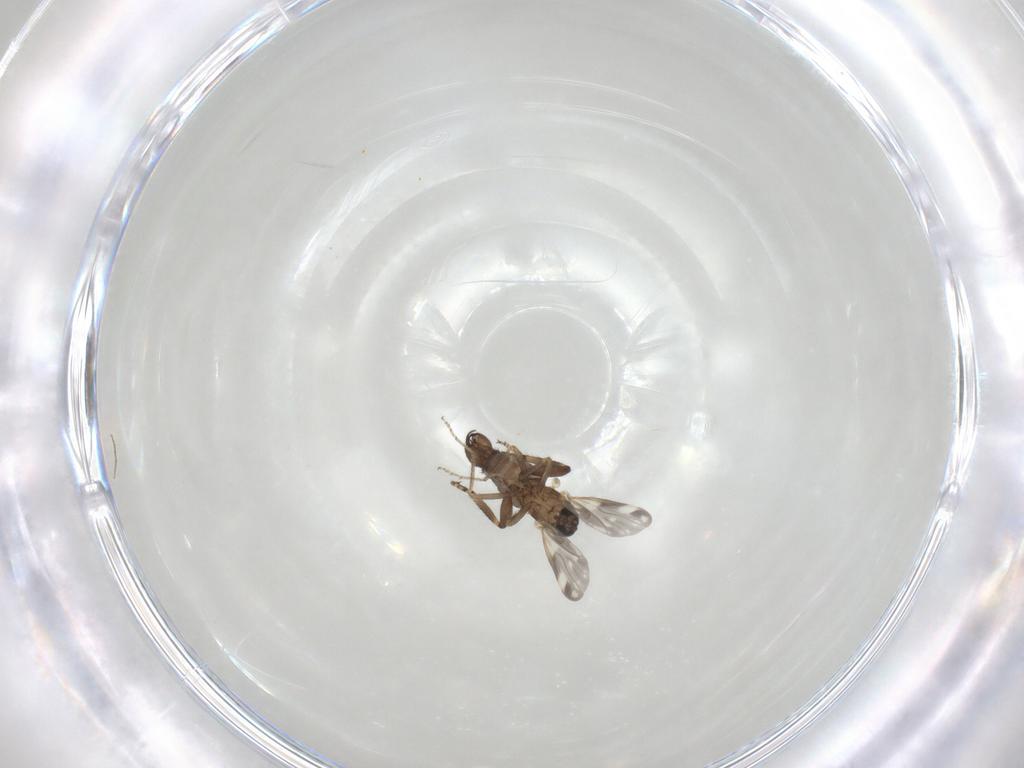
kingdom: Animalia
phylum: Arthropoda
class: Insecta
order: Diptera
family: Ceratopogonidae
